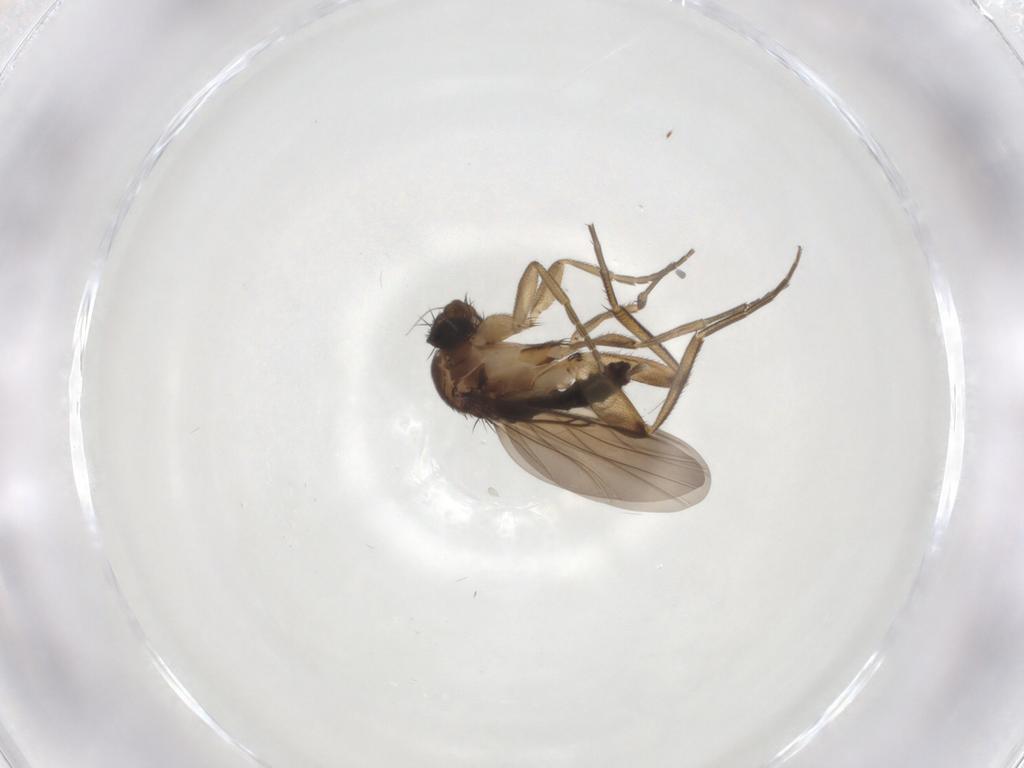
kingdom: Animalia
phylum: Arthropoda
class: Insecta
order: Diptera
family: Phoridae
